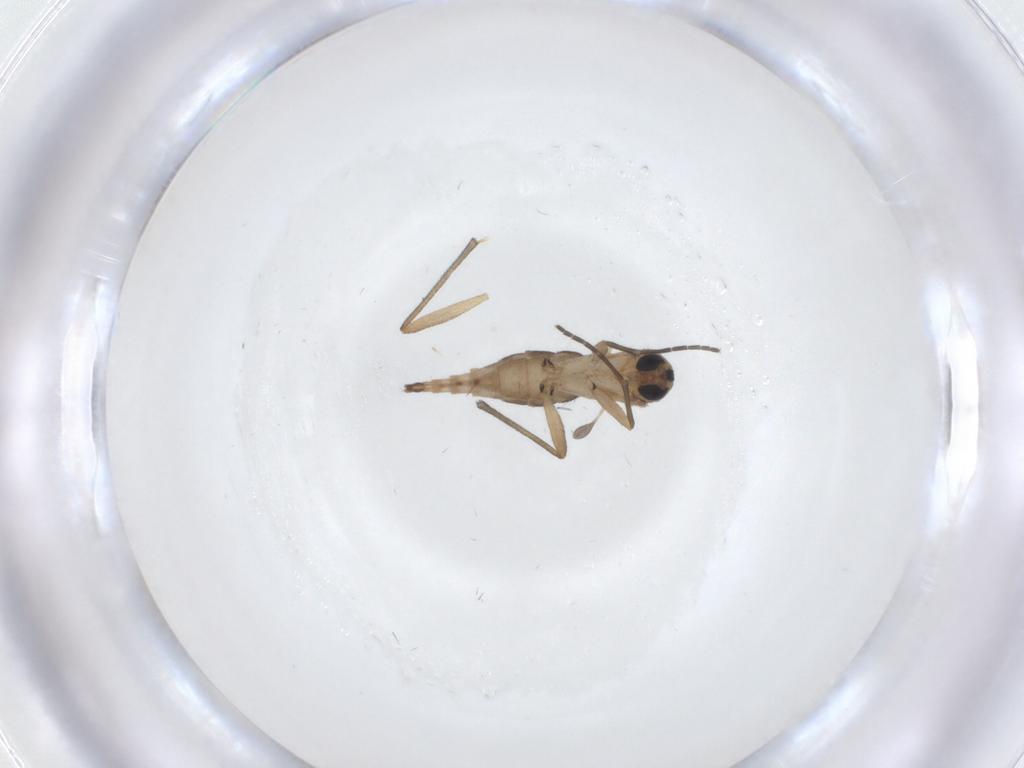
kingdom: Animalia
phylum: Arthropoda
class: Insecta
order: Diptera
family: Sciaridae
